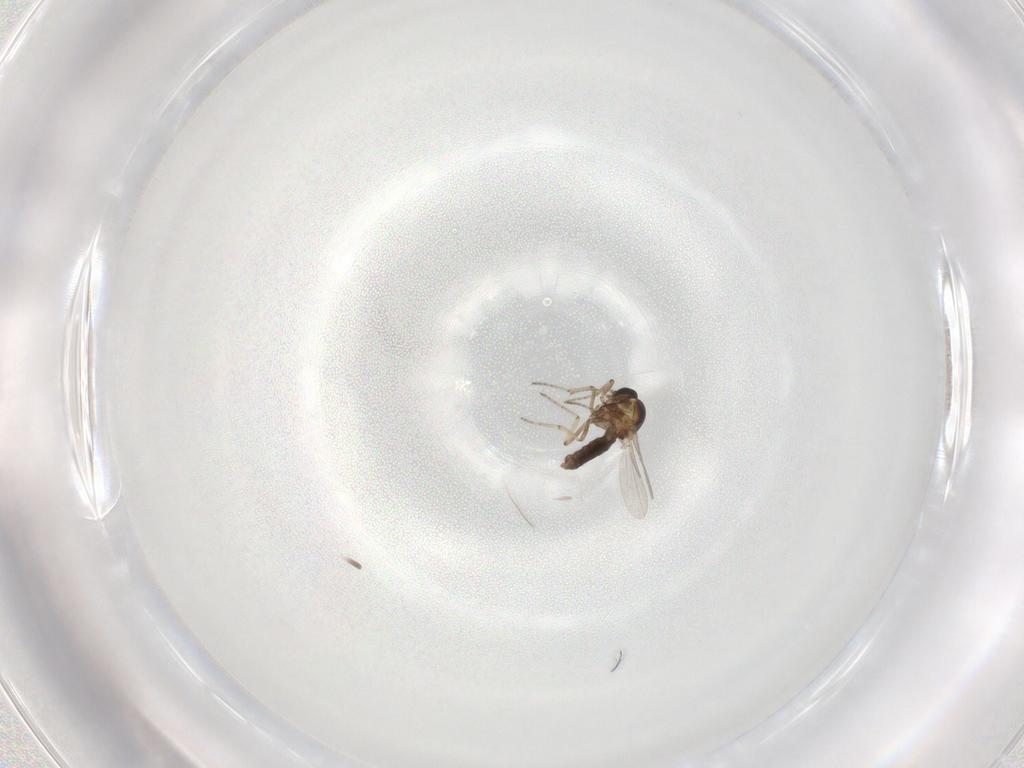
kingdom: Animalia
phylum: Arthropoda
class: Insecta
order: Diptera
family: Ceratopogonidae
